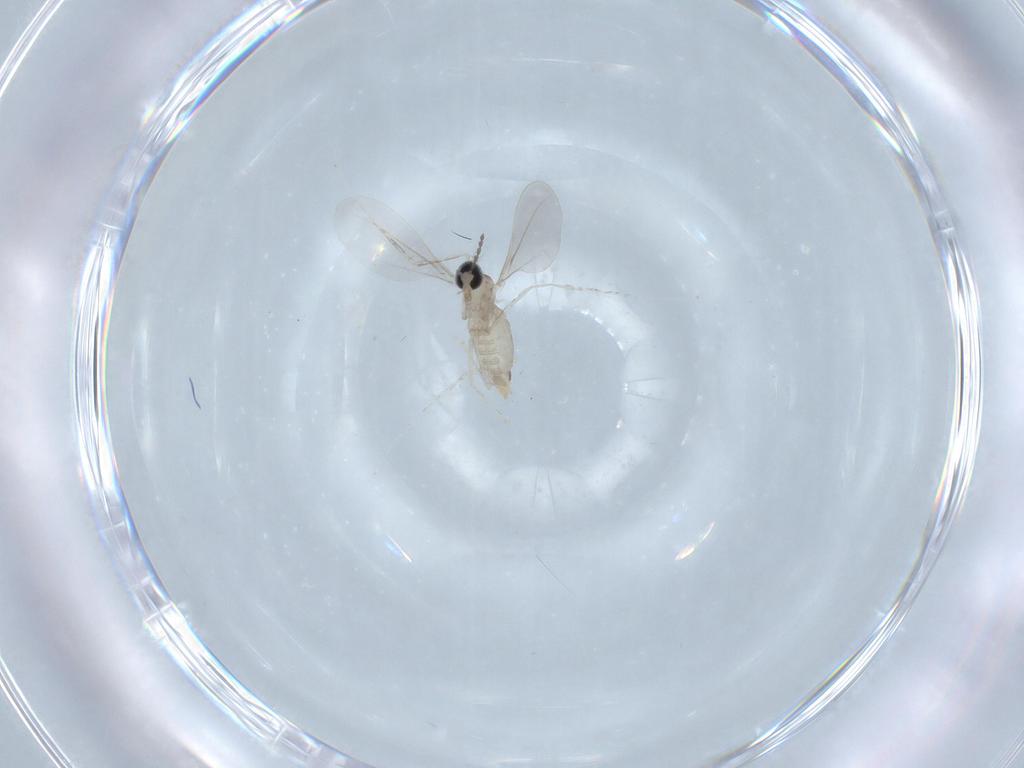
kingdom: Animalia
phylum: Arthropoda
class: Insecta
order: Diptera
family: Cecidomyiidae
